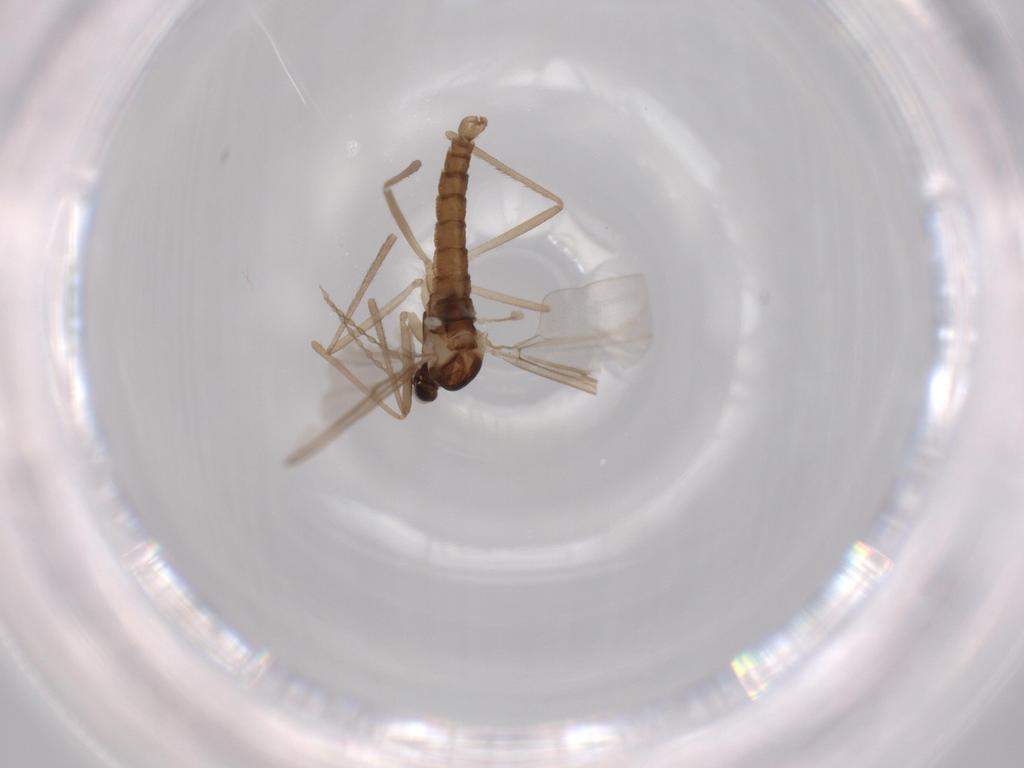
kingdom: Animalia
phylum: Arthropoda
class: Insecta
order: Diptera
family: Cecidomyiidae
